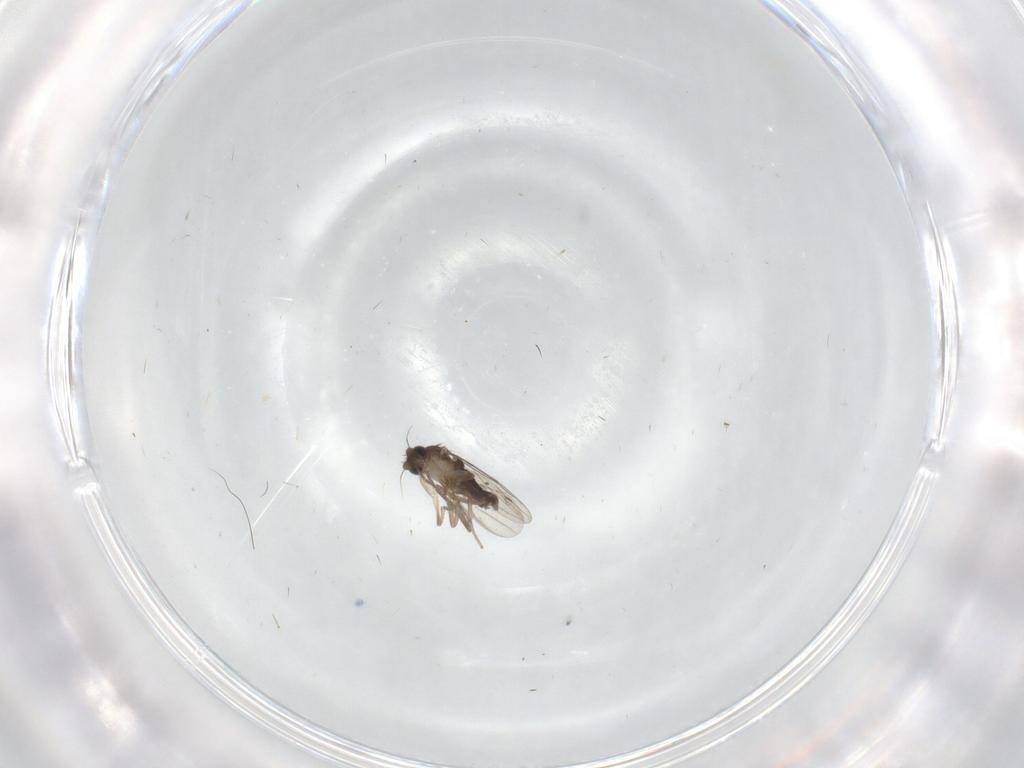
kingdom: Animalia
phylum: Arthropoda
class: Insecta
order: Diptera
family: Phoridae
